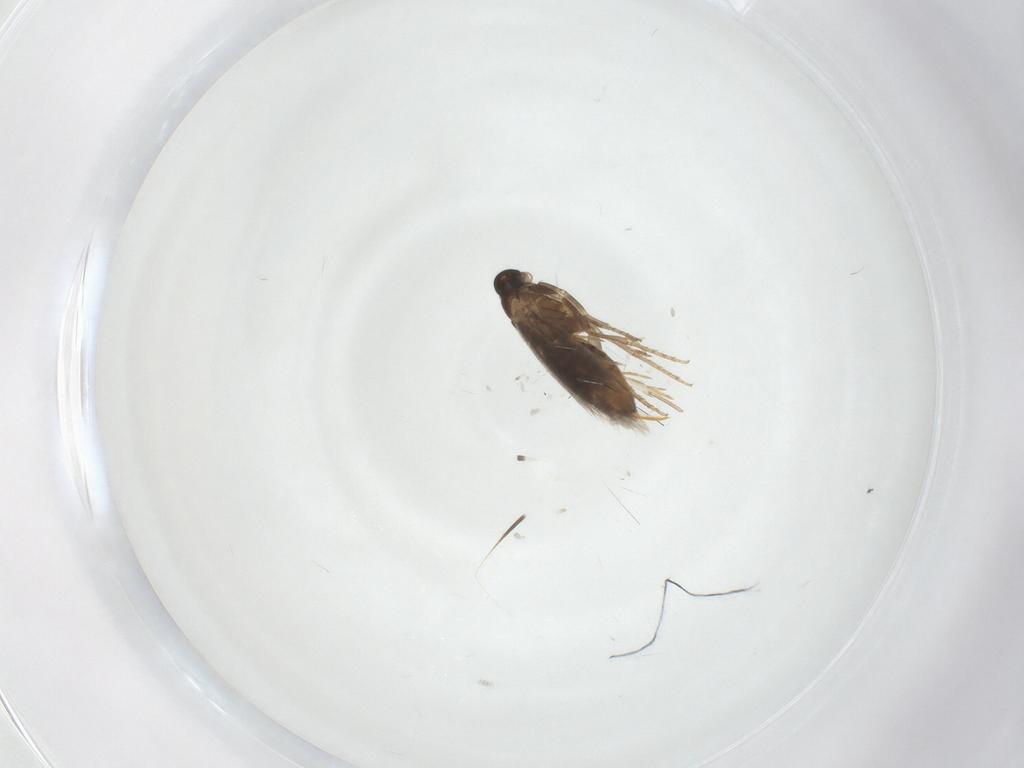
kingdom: Animalia
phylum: Arthropoda
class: Insecta
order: Lepidoptera
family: Heliozelidae
